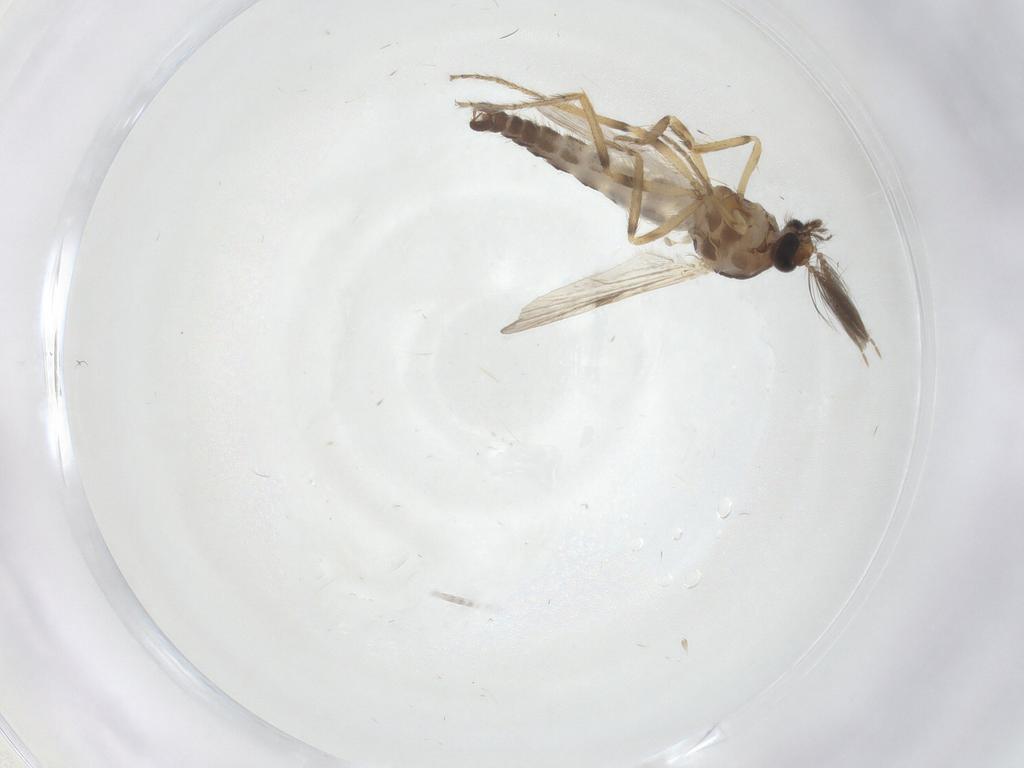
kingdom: Animalia
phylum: Arthropoda
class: Insecta
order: Diptera
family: Ceratopogonidae
